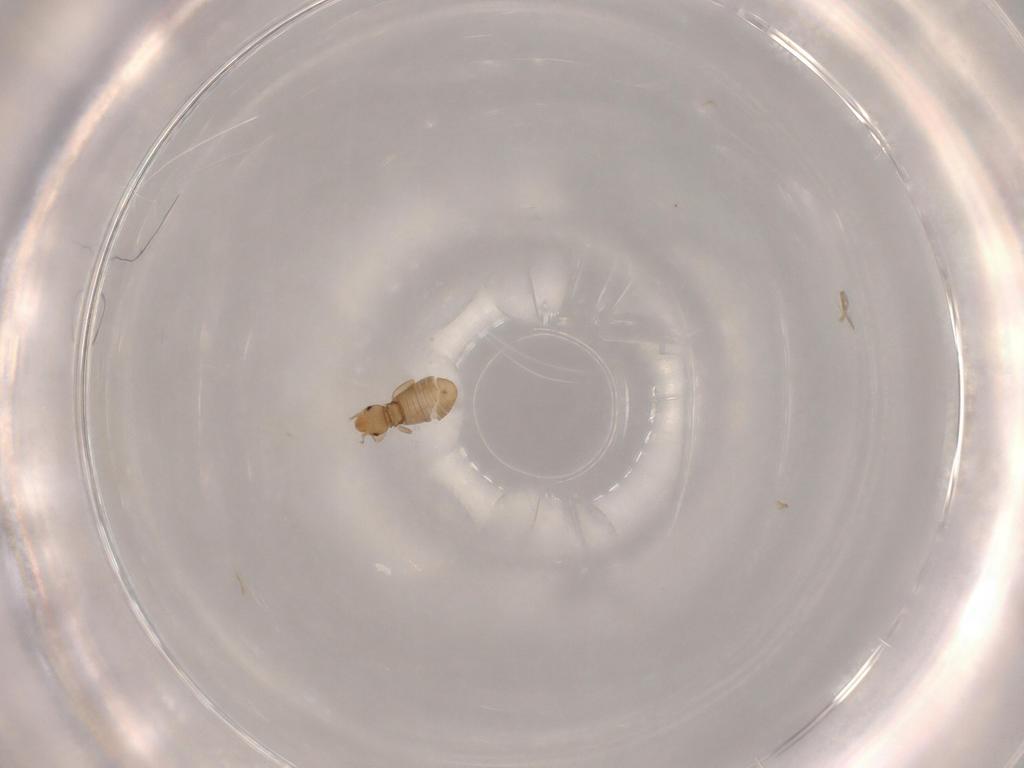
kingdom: Animalia
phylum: Arthropoda
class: Insecta
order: Psocodea
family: Liposcelididae
